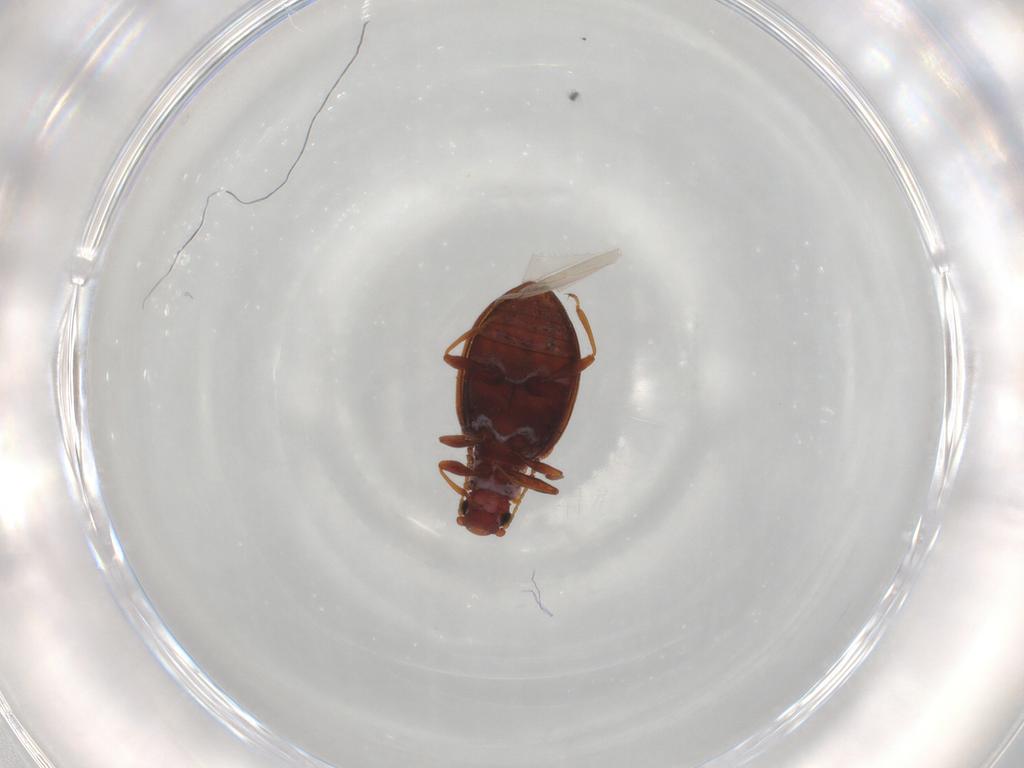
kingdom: Animalia
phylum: Arthropoda
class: Insecta
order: Coleoptera
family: Latridiidae
